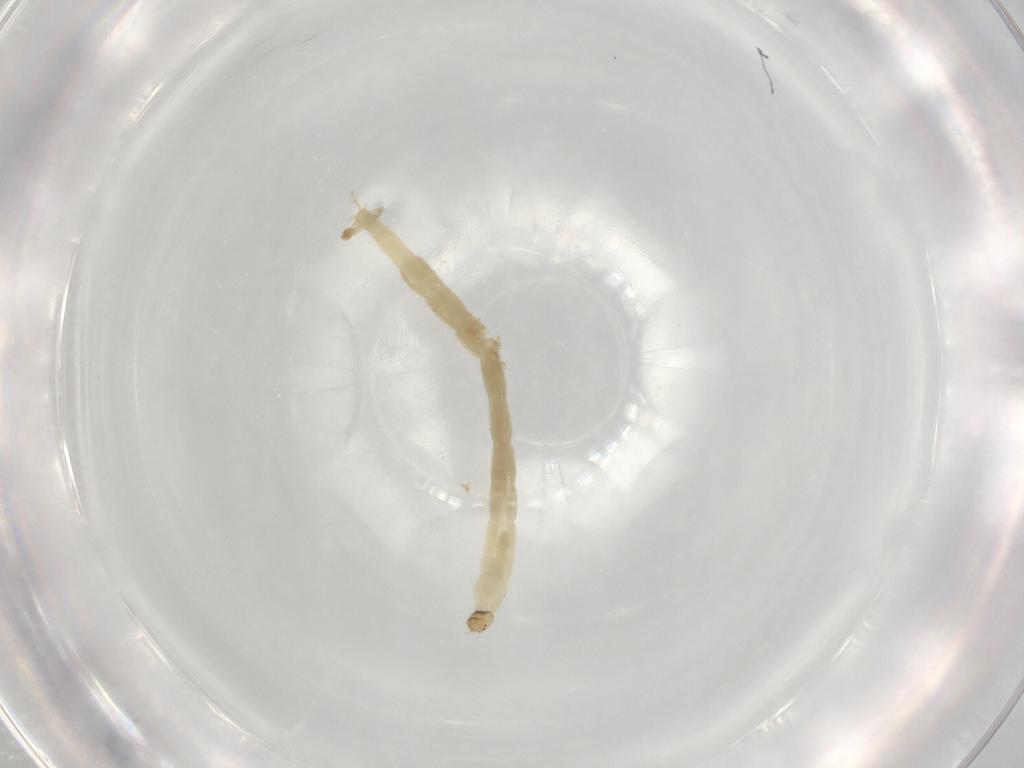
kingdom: Animalia
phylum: Arthropoda
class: Insecta
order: Diptera
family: Chironomidae
